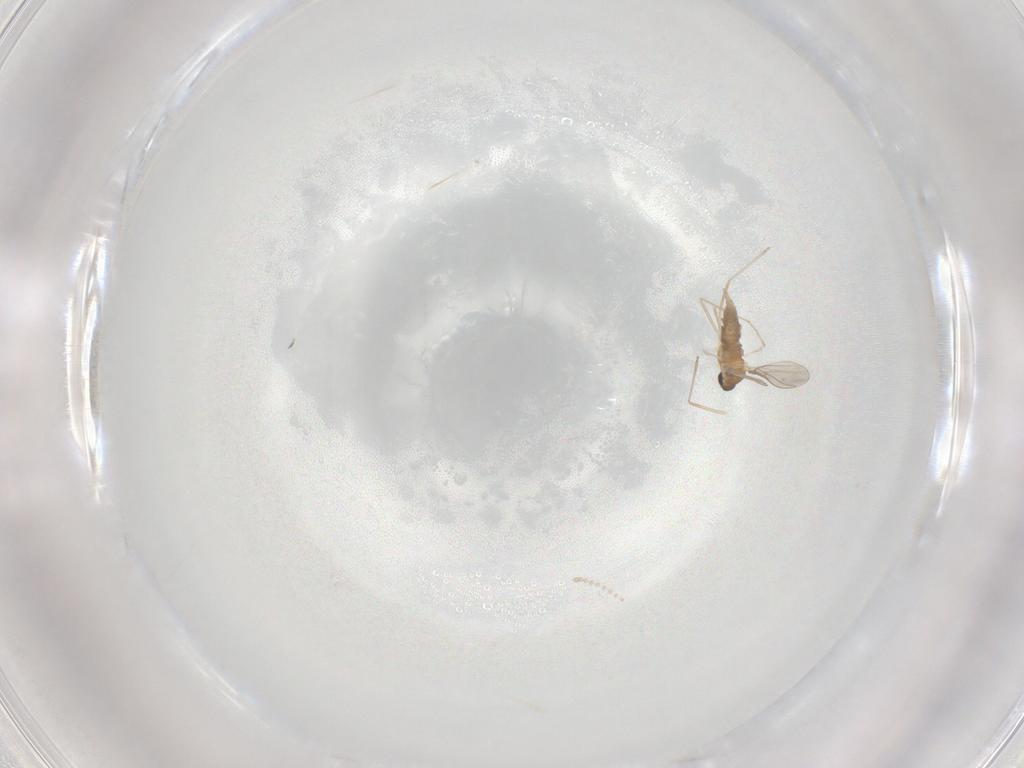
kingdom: Animalia
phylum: Arthropoda
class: Insecta
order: Diptera
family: Cecidomyiidae
